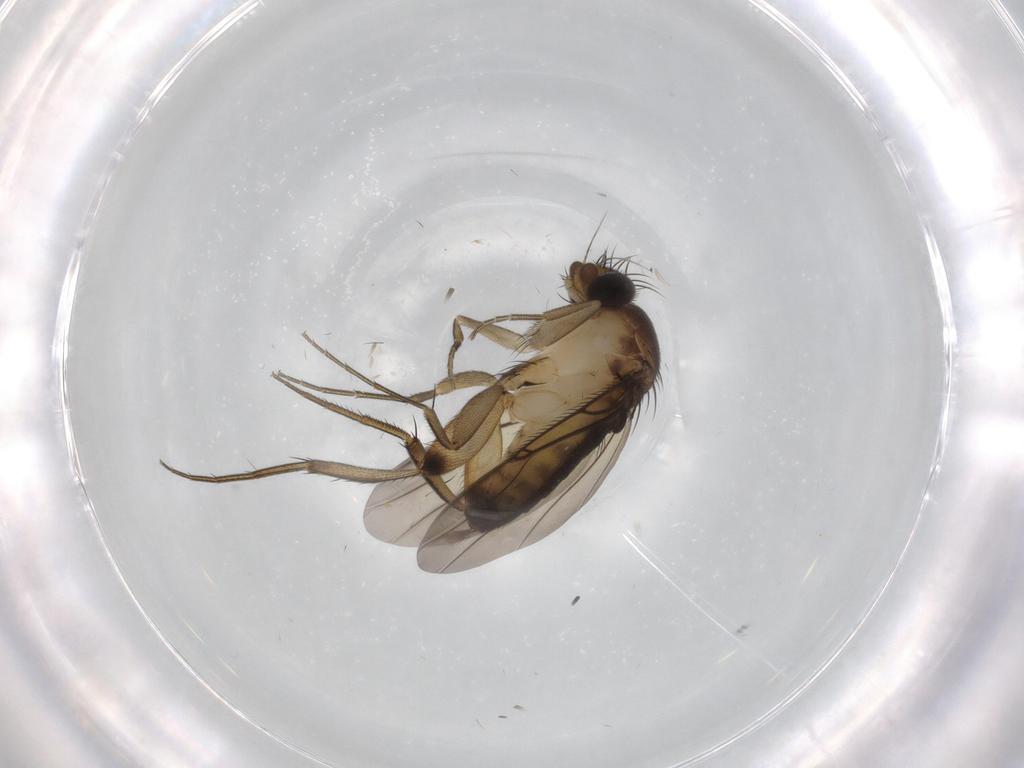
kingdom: Animalia
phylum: Arthropoda
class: Insecta
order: Diptera
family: Phoridae
